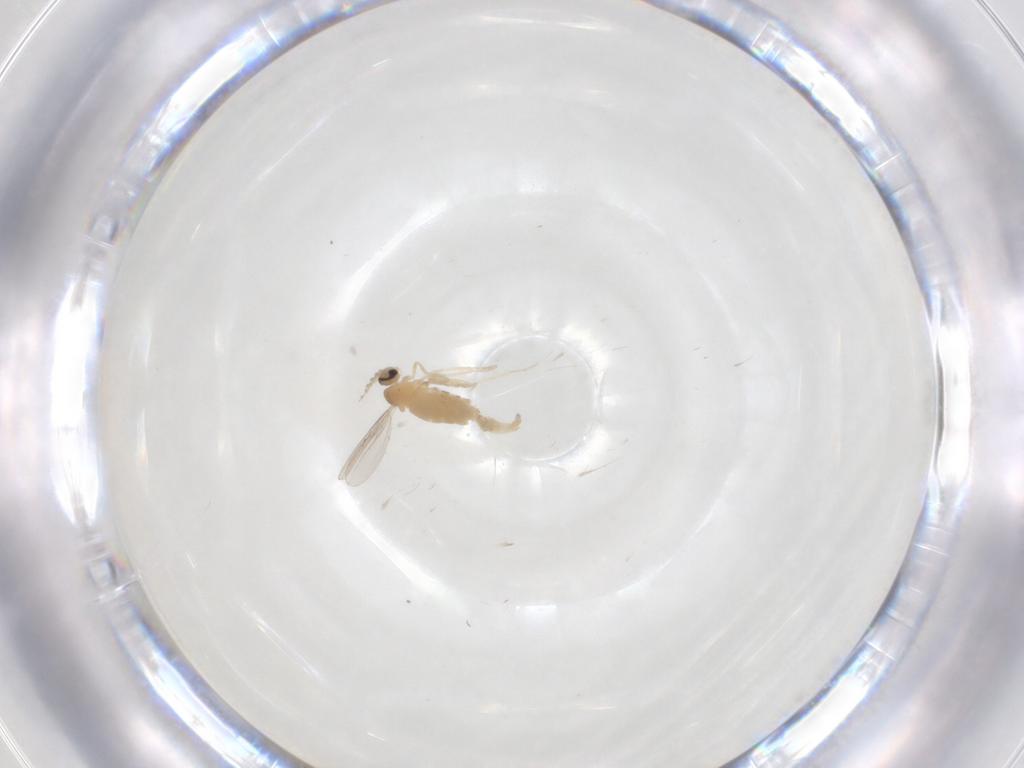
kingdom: Animalia
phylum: Arthropoda
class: Insecta
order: Diptera
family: Cecidomyiidae
